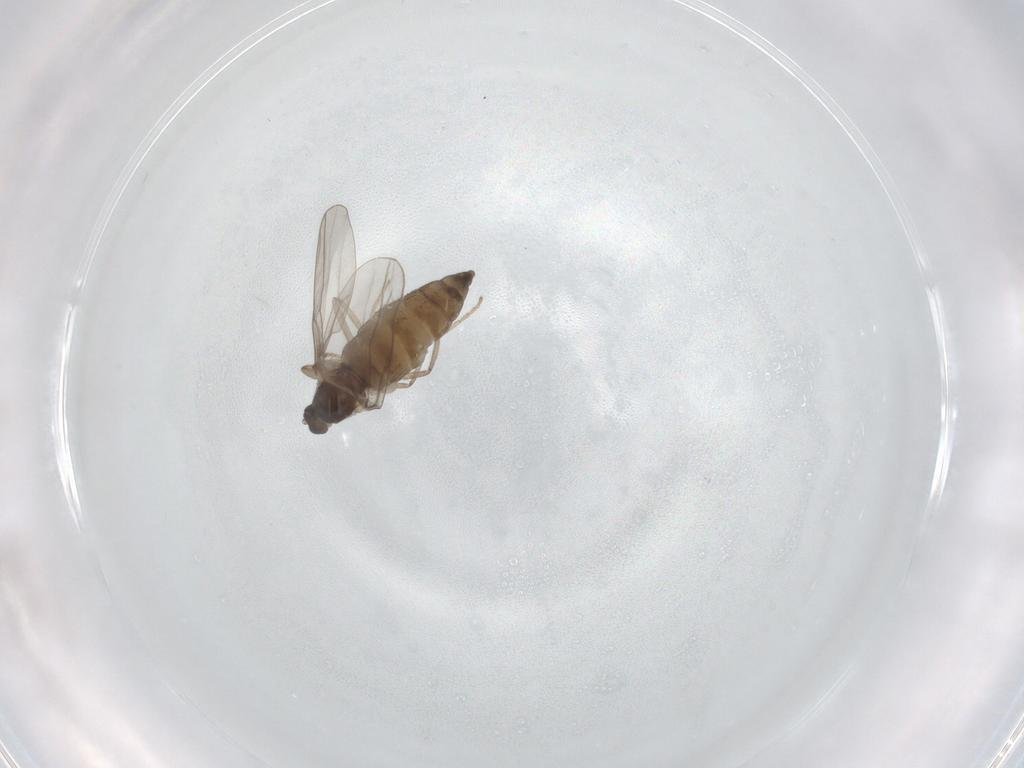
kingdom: Animalia
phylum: Arthropoda
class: Insecta
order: Diptera
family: Cecidomyiidae
